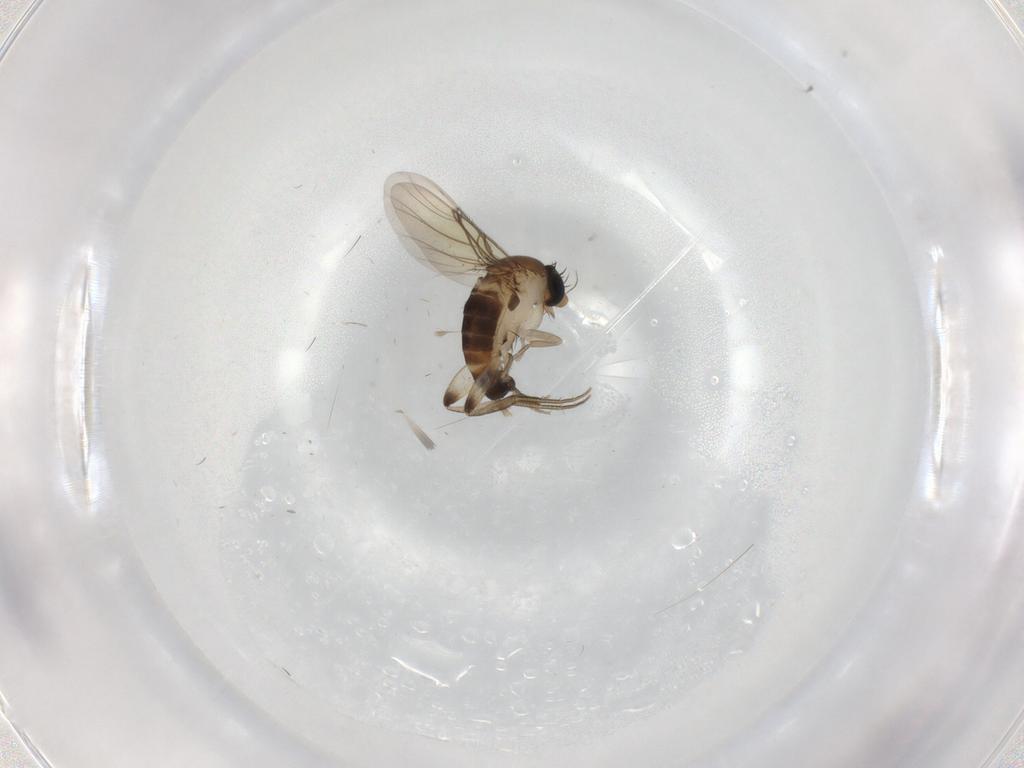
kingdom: Animalia
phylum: Arthropoda
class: Insecta
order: Diptera
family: Phoridae
